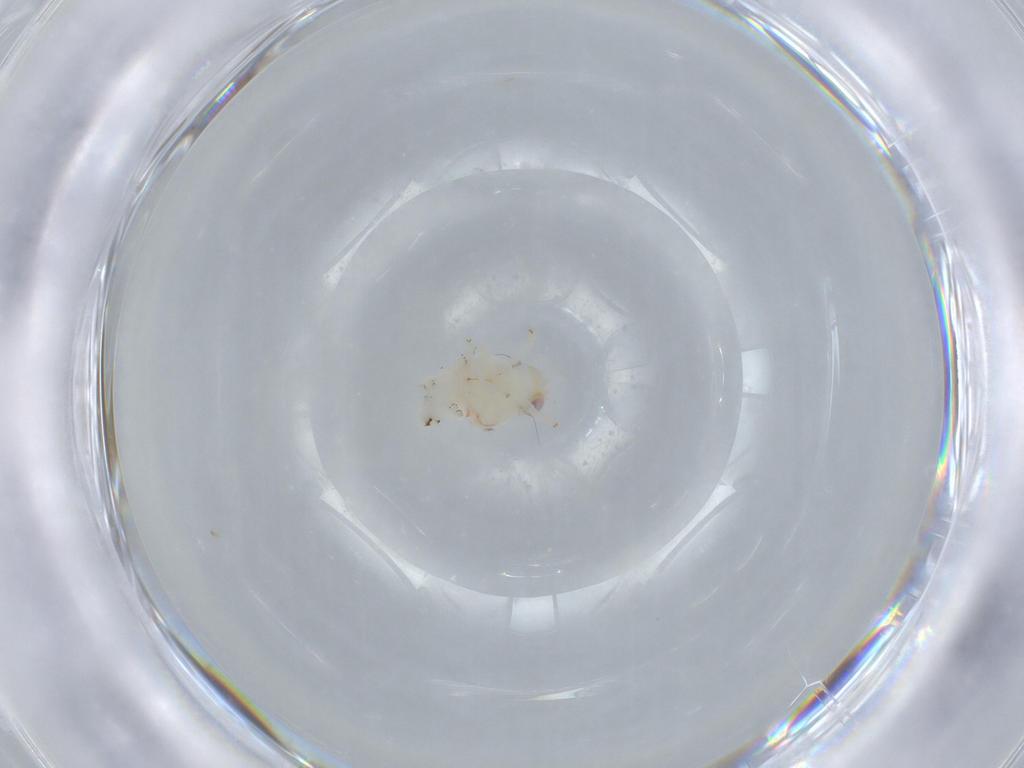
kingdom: Animalia
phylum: Arthropoda
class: Insecta
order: Hemiptera
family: Nogodinidae
